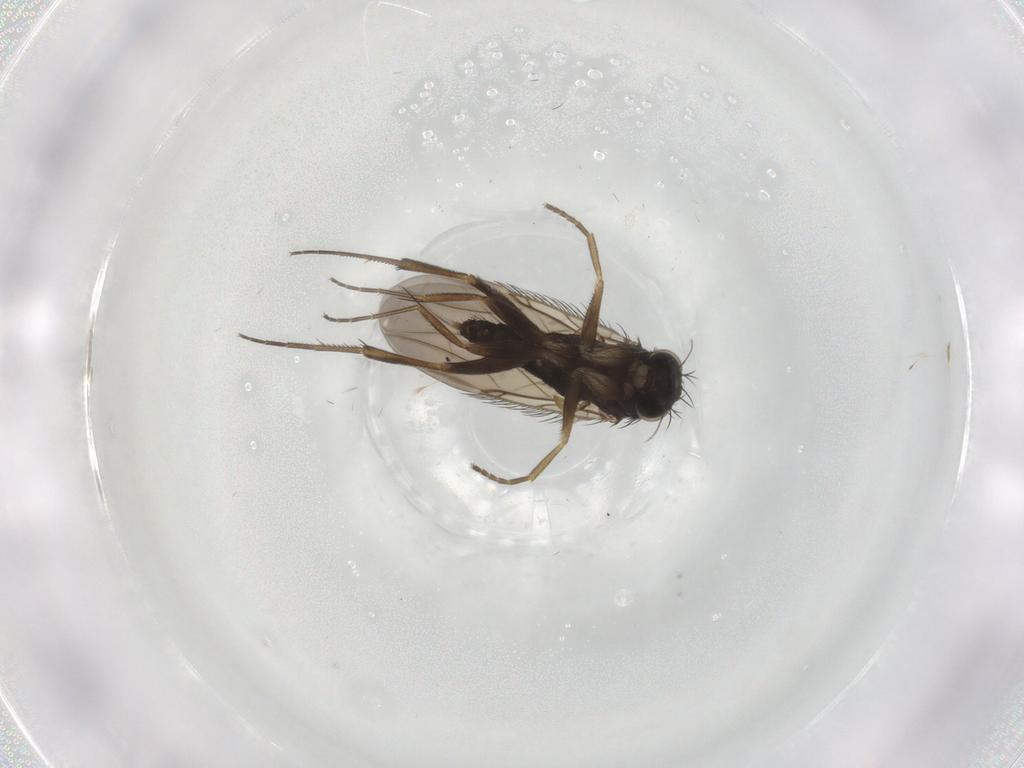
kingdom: Animalia
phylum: Arthropoda
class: Insecta
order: Diptera
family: Phoridae
